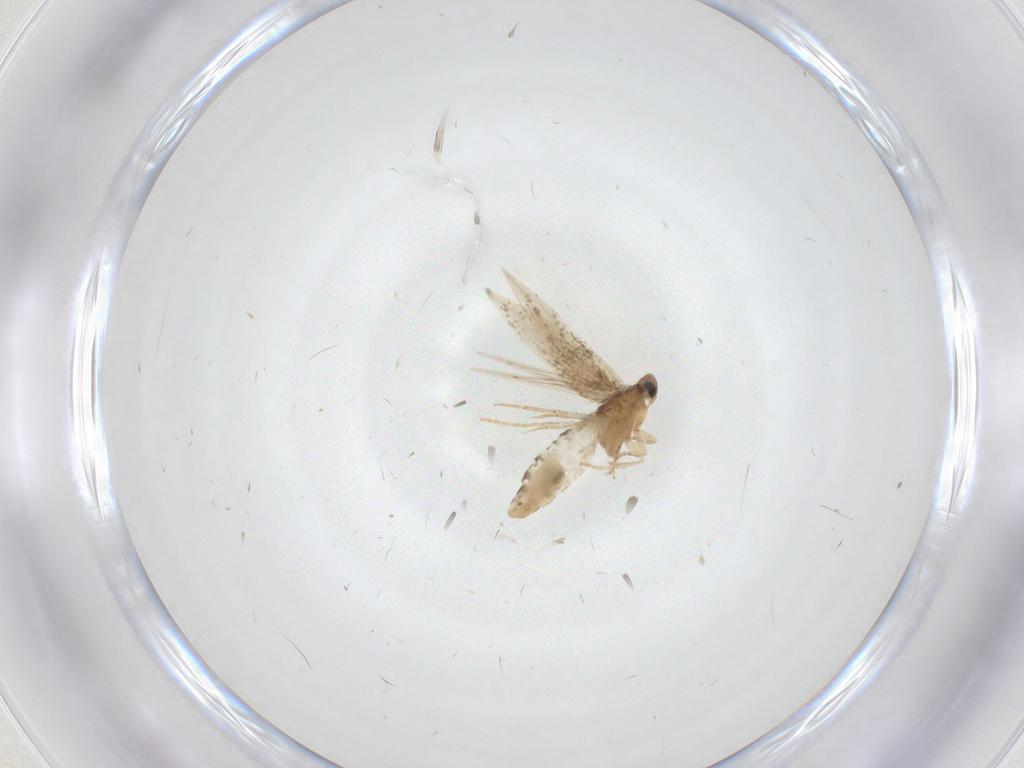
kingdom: Animalia
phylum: Arthropoda
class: Insecta
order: Lepidoptera
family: Nepticulidae
